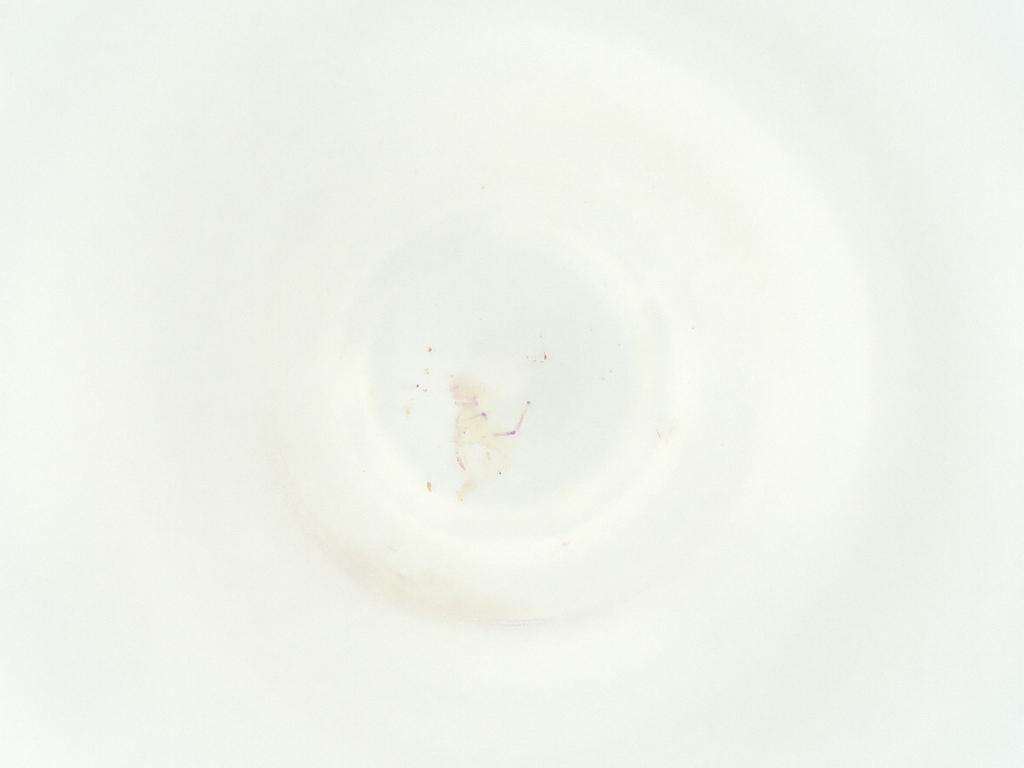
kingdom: Animalia
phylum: Arthropoda
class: Collembola
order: Entomobryomorpha
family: Entomobryidae
